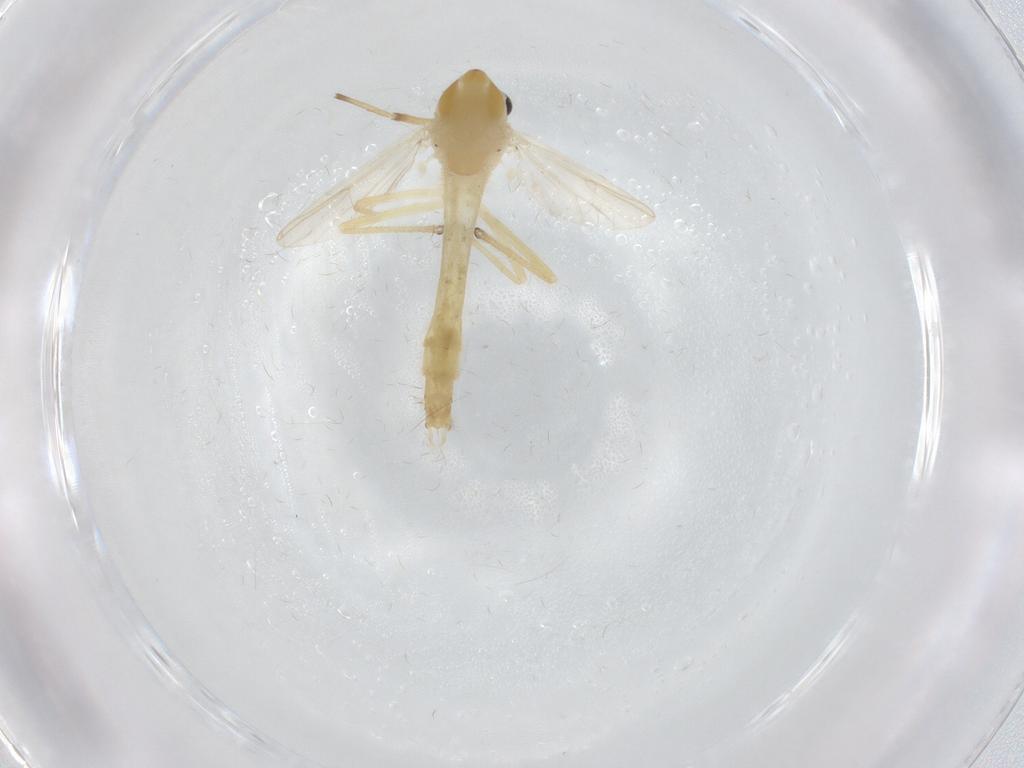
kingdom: Animalia
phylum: Arthropoda
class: Insecta
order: Diptera
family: Chironomidae
